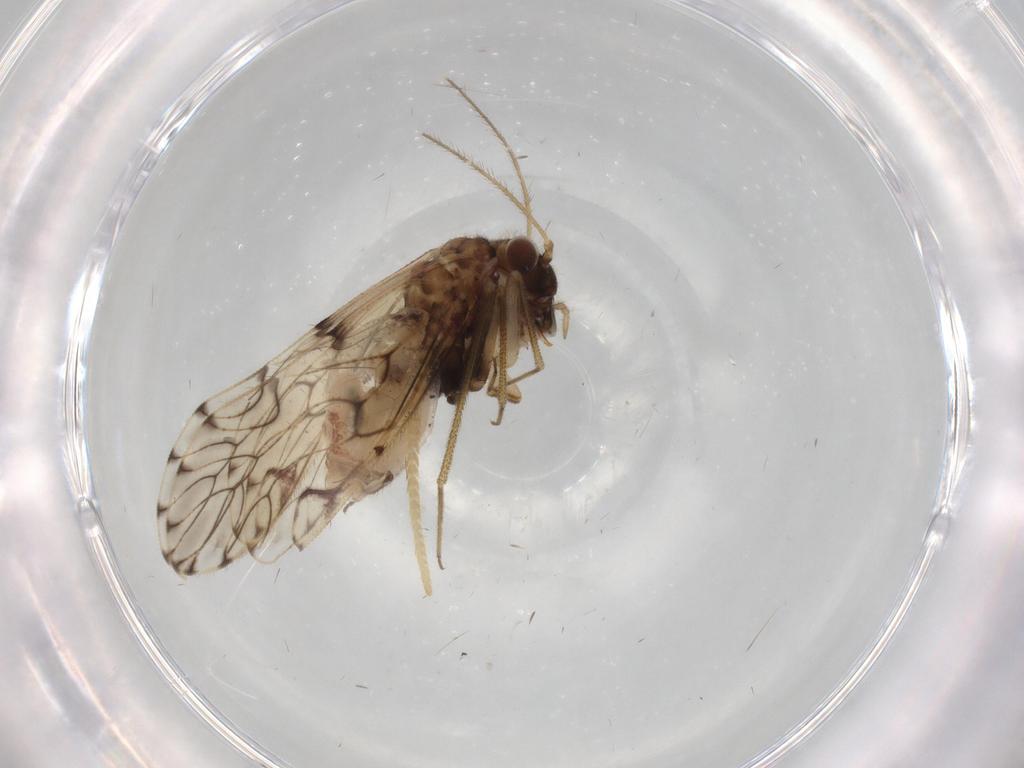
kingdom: Animalia
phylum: Arthropoda
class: Insecta
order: Psocodea
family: Epipsocidae
